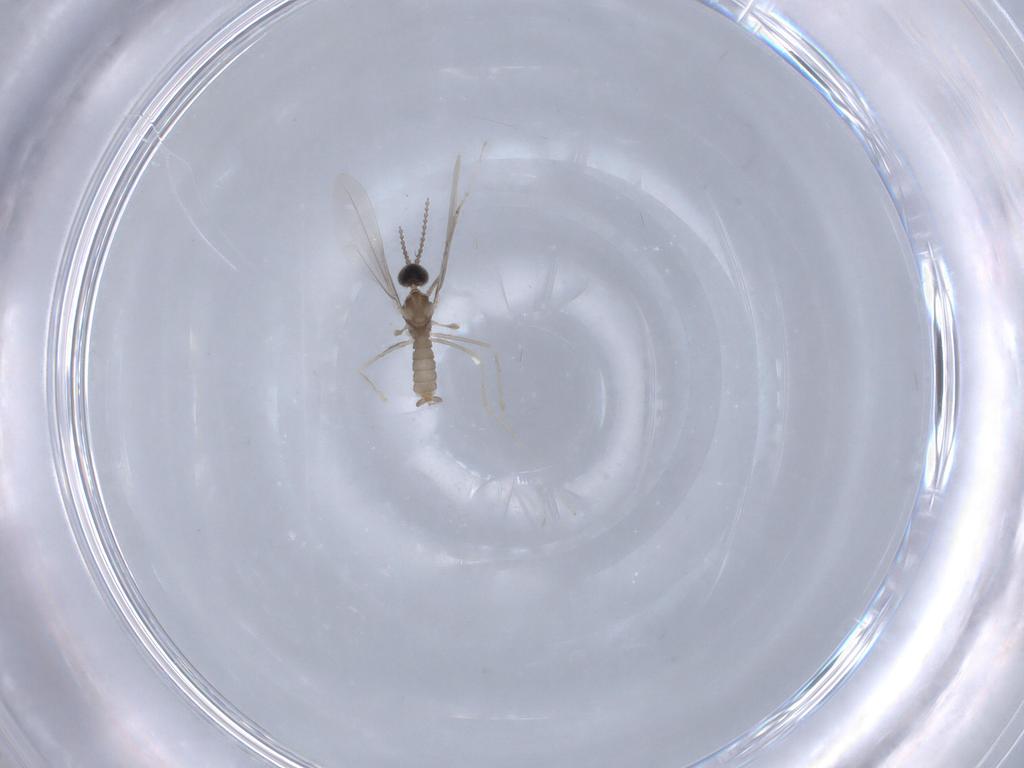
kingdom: Animalia
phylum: Arthropoda
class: Insecta
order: Diptera
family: Cecidomyiidae
